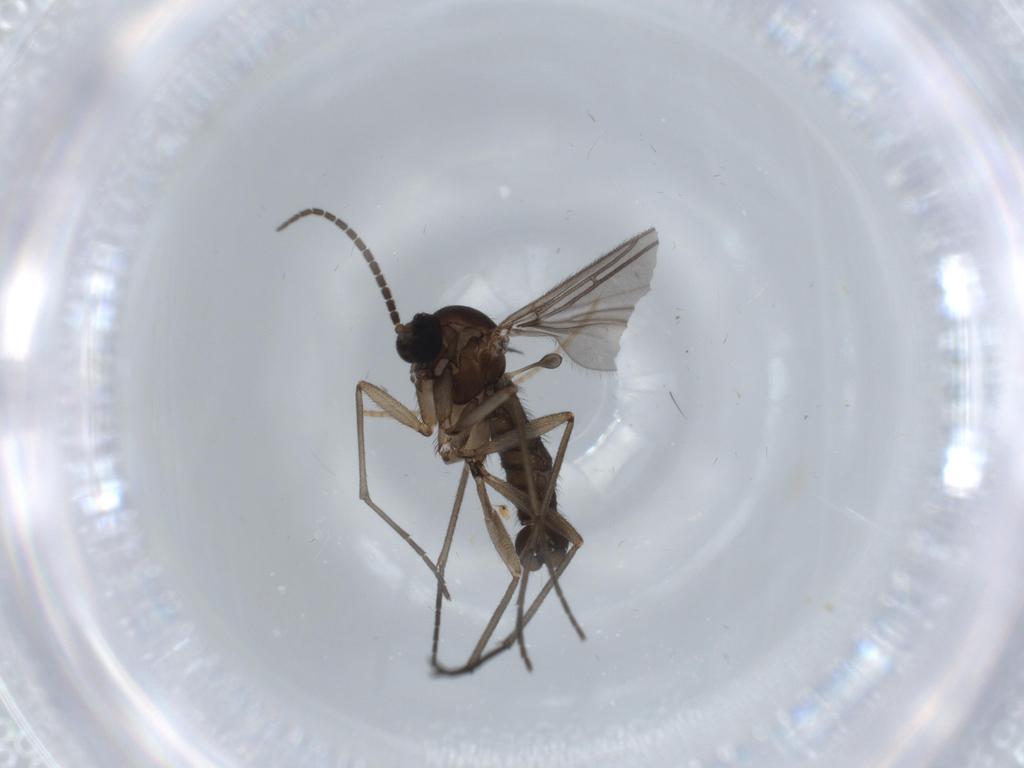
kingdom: Animalia
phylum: Arthropoda
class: Insecta
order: Diptera
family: Sciaridae
